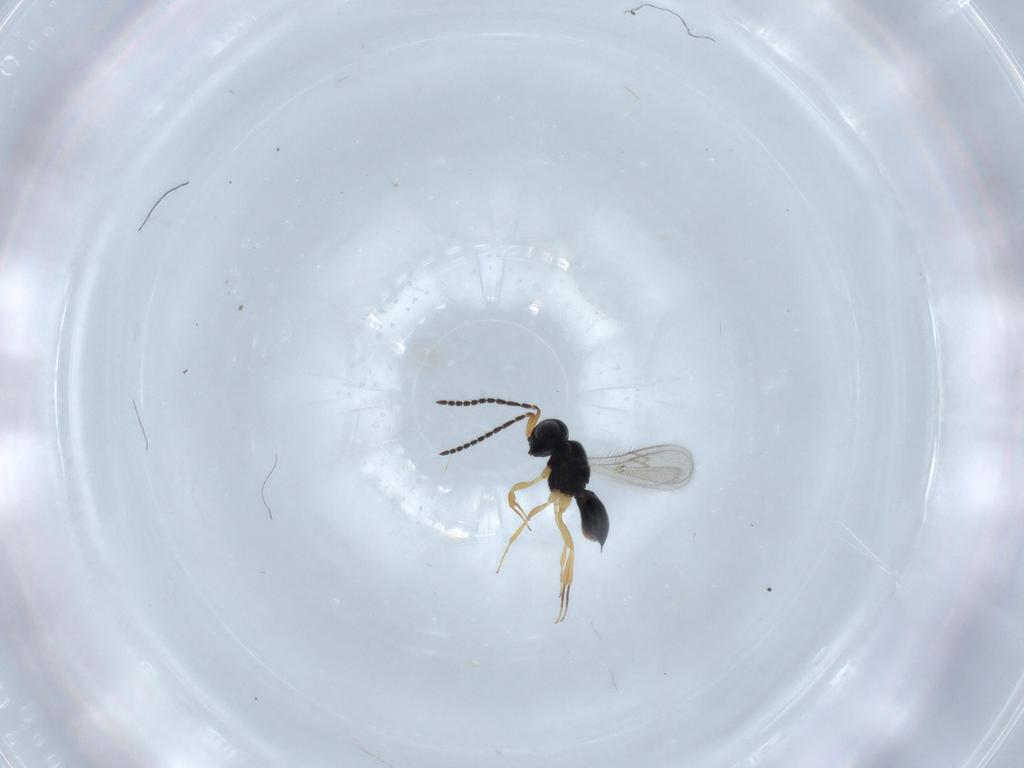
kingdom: Animalia
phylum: Arthropoda
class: Insecta
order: Hymenoptera
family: Scelionidae
